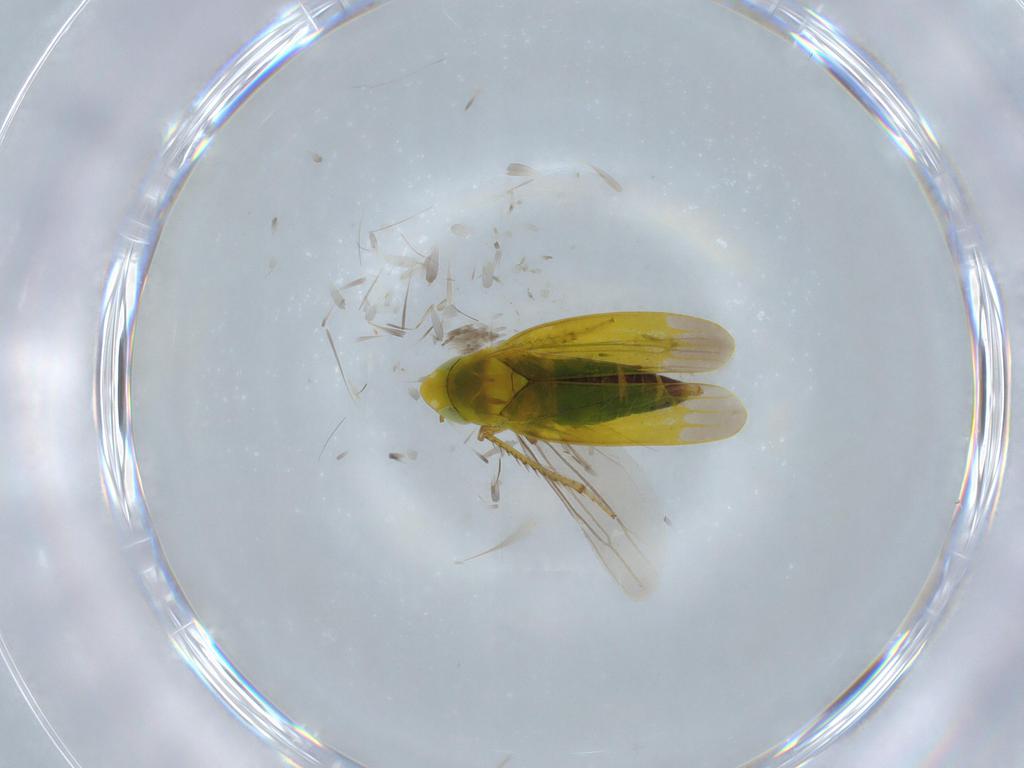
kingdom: Animalia
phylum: Arthropoda
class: Insecta
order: Hemiptera
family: Cicadellidae
